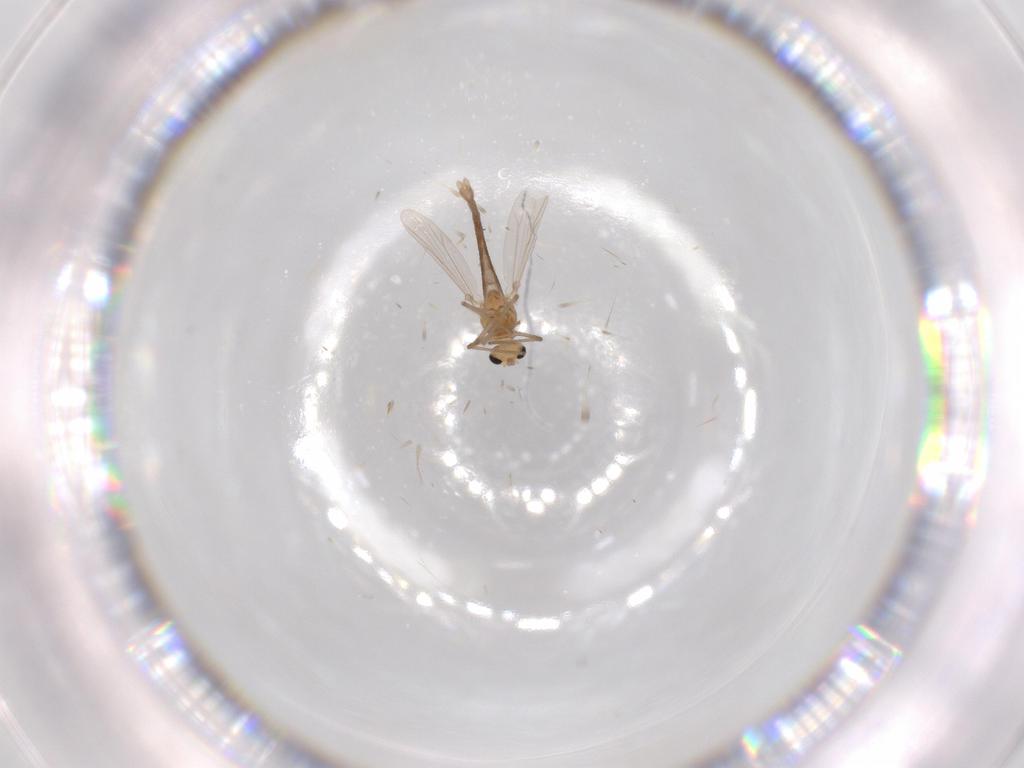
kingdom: Animalia
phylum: Arthropoda
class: Insecta
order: Diptera
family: Chironomidae
